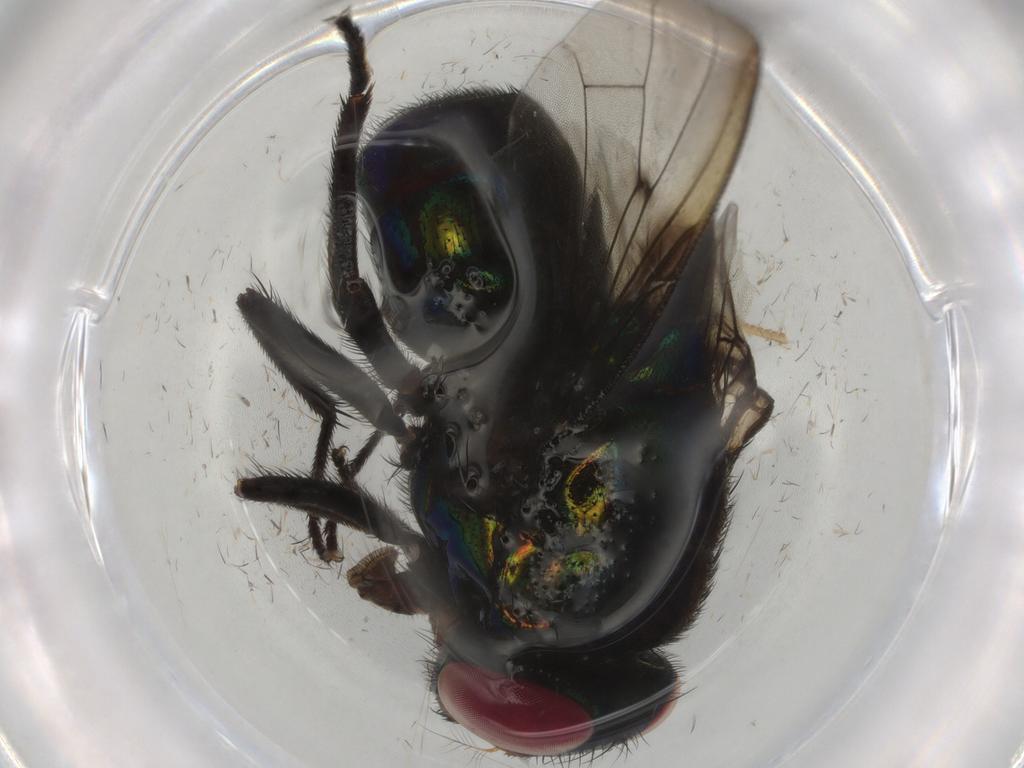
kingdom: Animalia
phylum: Arthropoda
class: Insecta
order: Diptera
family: Muscidae
